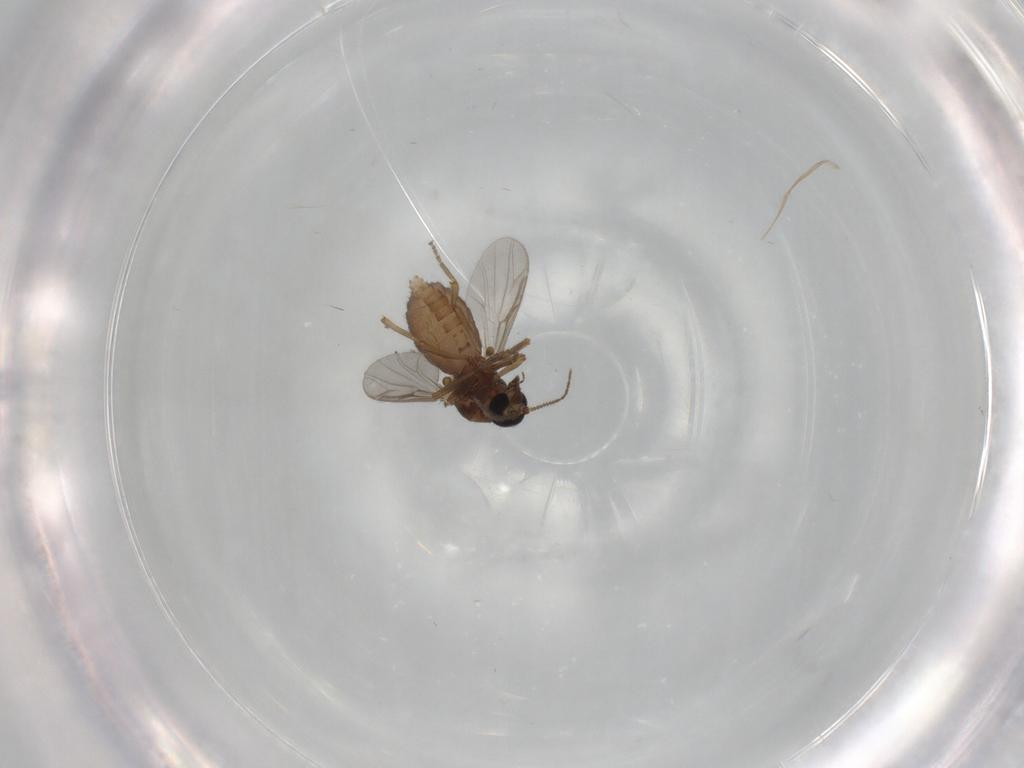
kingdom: Animalia
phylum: Arthropoda
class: Insecta
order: Diptera
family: Ceratopogonidae
